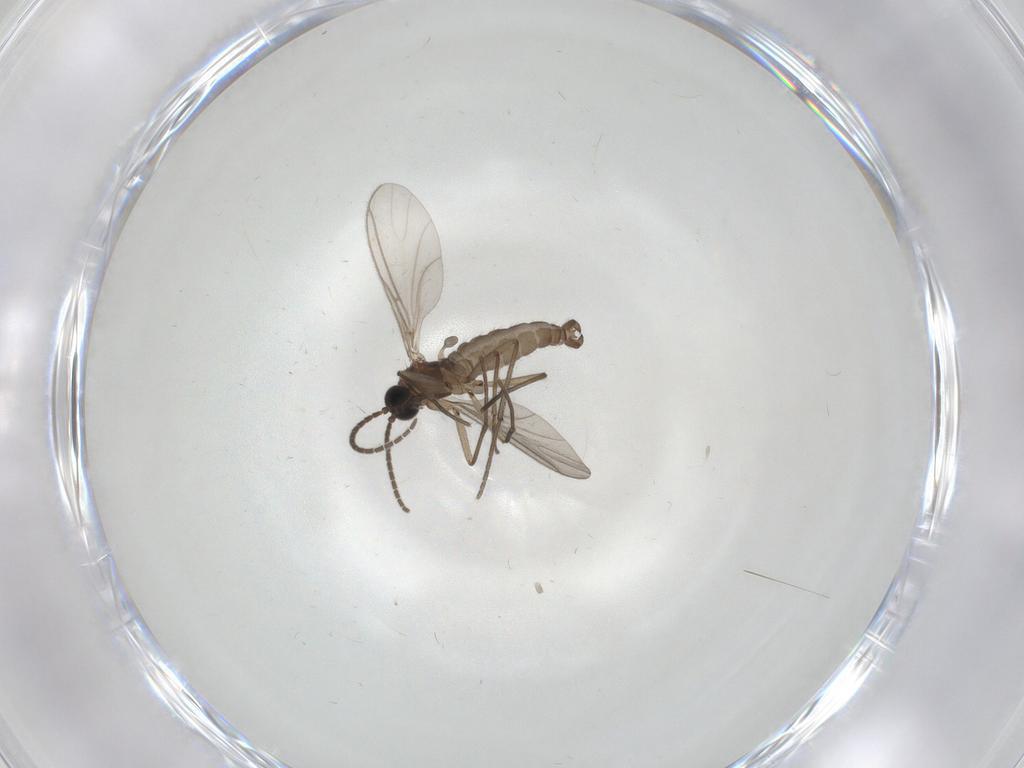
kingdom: Animalia
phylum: Arthropoda
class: Insecta
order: Diptera
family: Sciaridae
